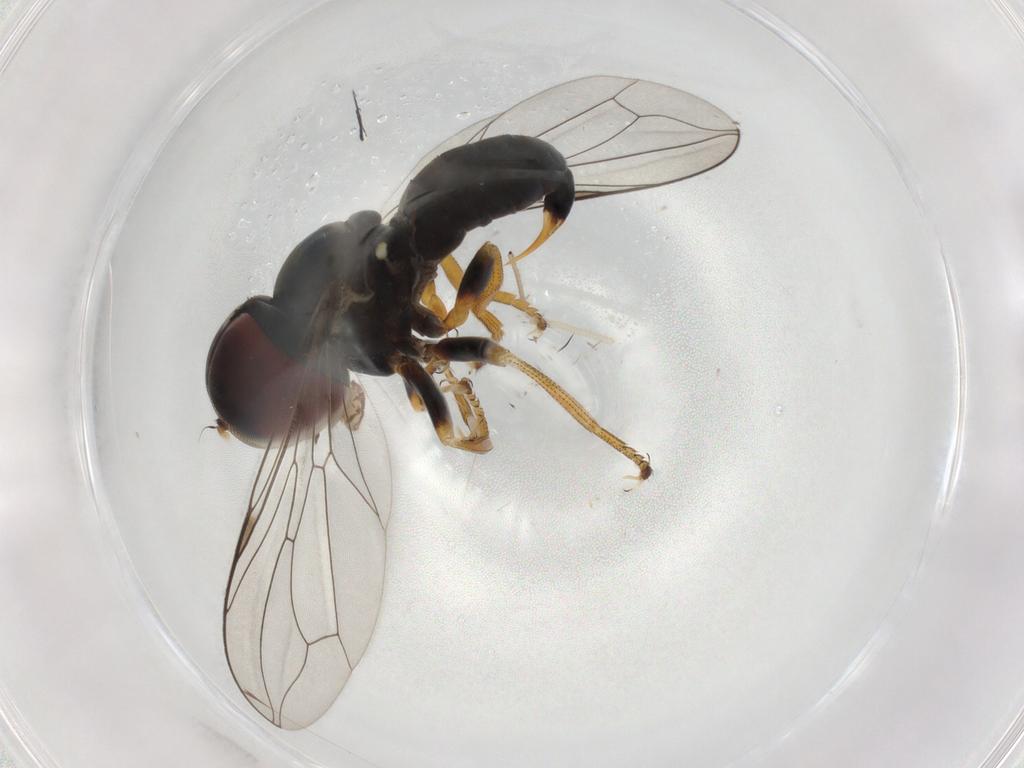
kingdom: Animalia
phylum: Arthropoda
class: Insecta
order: Diptera
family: Pipunculidae
